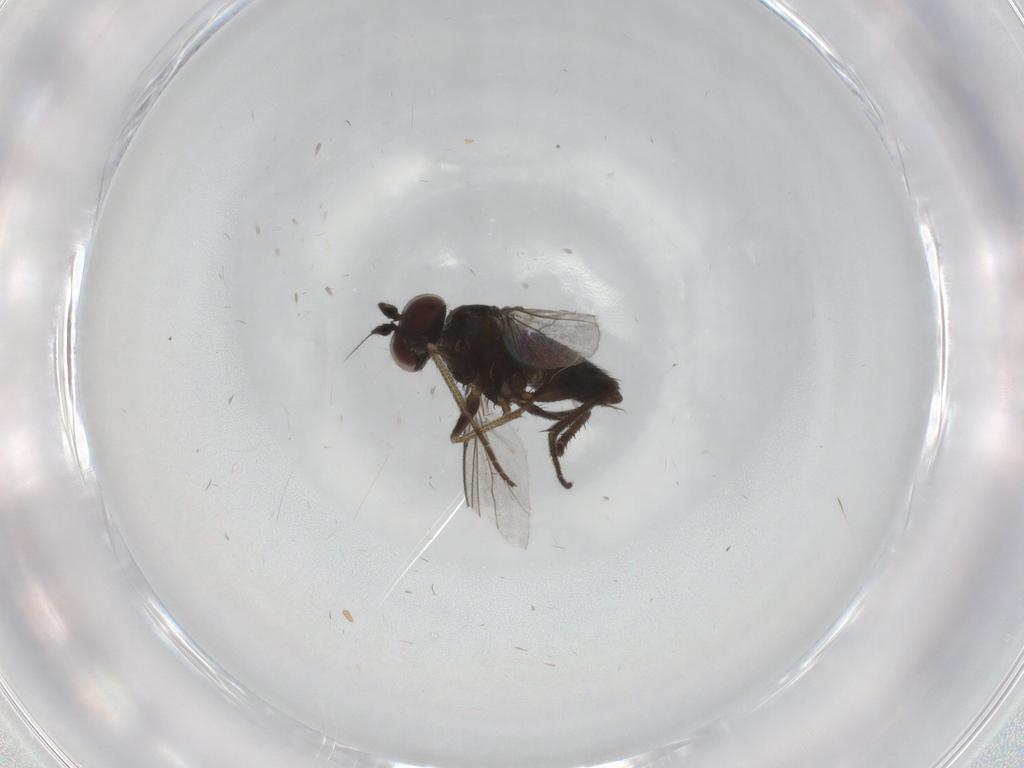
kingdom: Animalia
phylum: Arthropoda
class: Insecta
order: Diptera
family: Dolichopodidae
